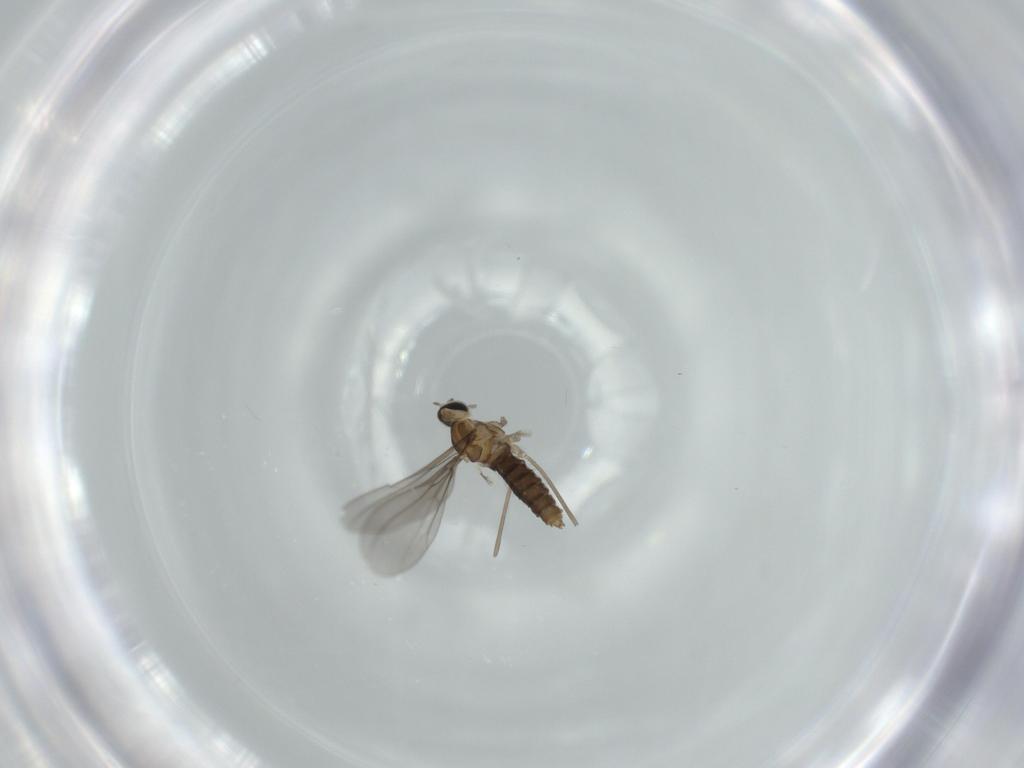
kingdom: Animalia
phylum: Arthropoda
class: Insecta
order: Diptera
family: Cecidomyiidae
